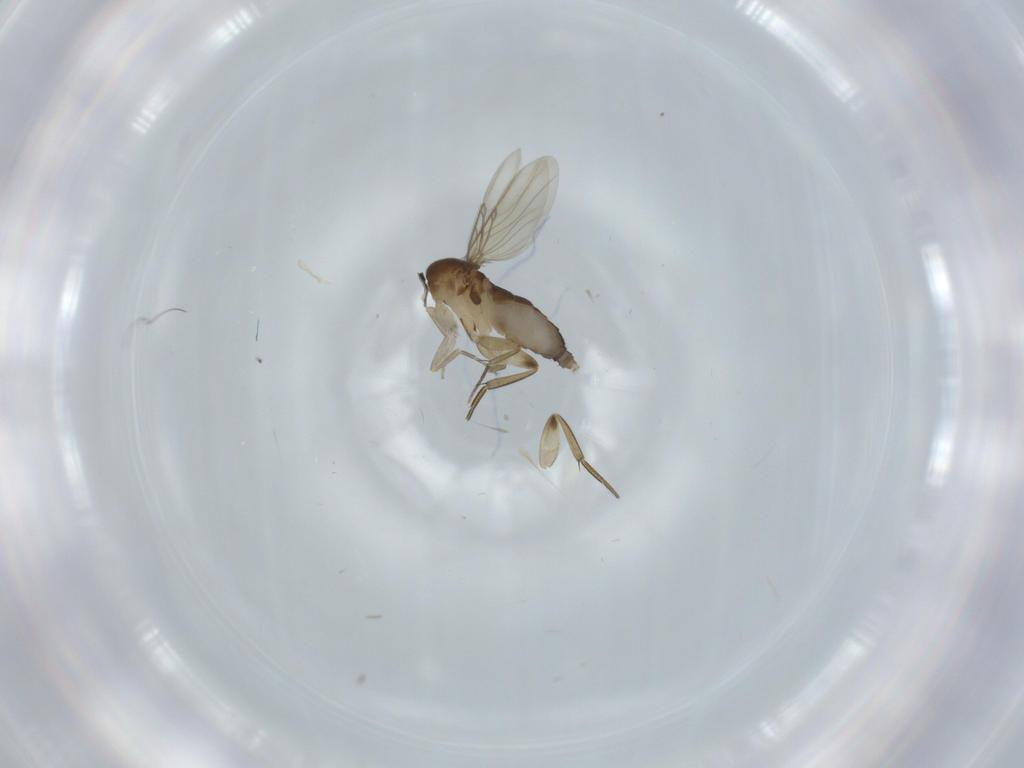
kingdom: Animalia
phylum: Arthropoda
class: Insecta
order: Diptera
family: Phoridae
